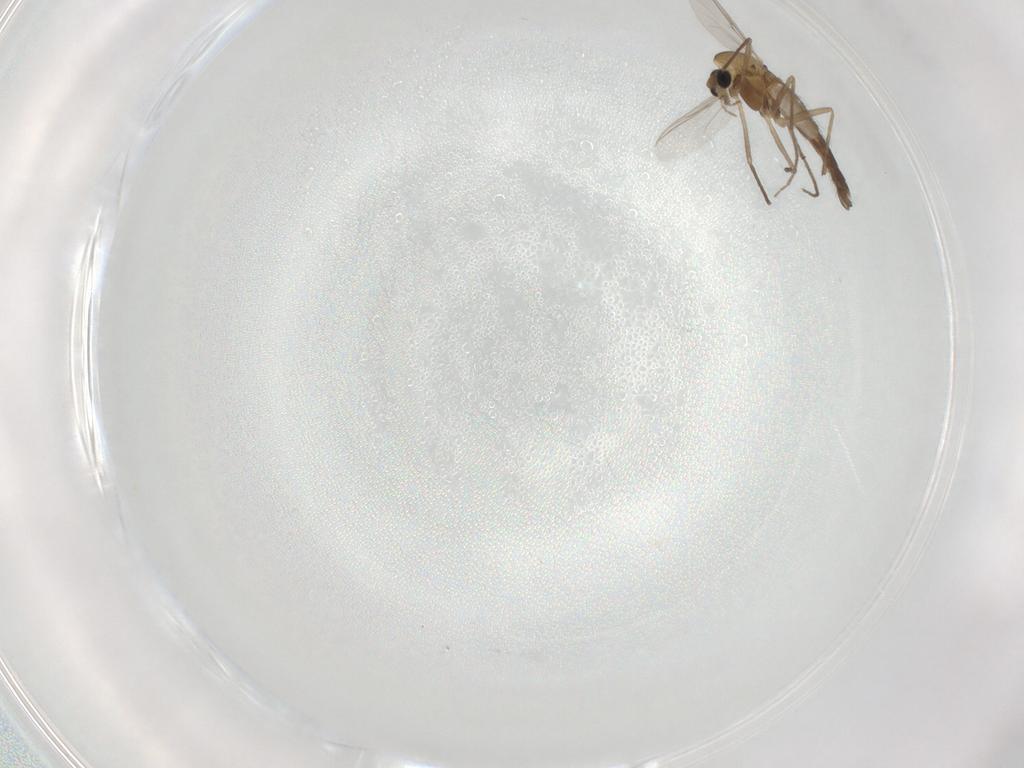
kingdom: Animalia
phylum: Arthropoda
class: Insecta
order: Diptera
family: Chironomidae
